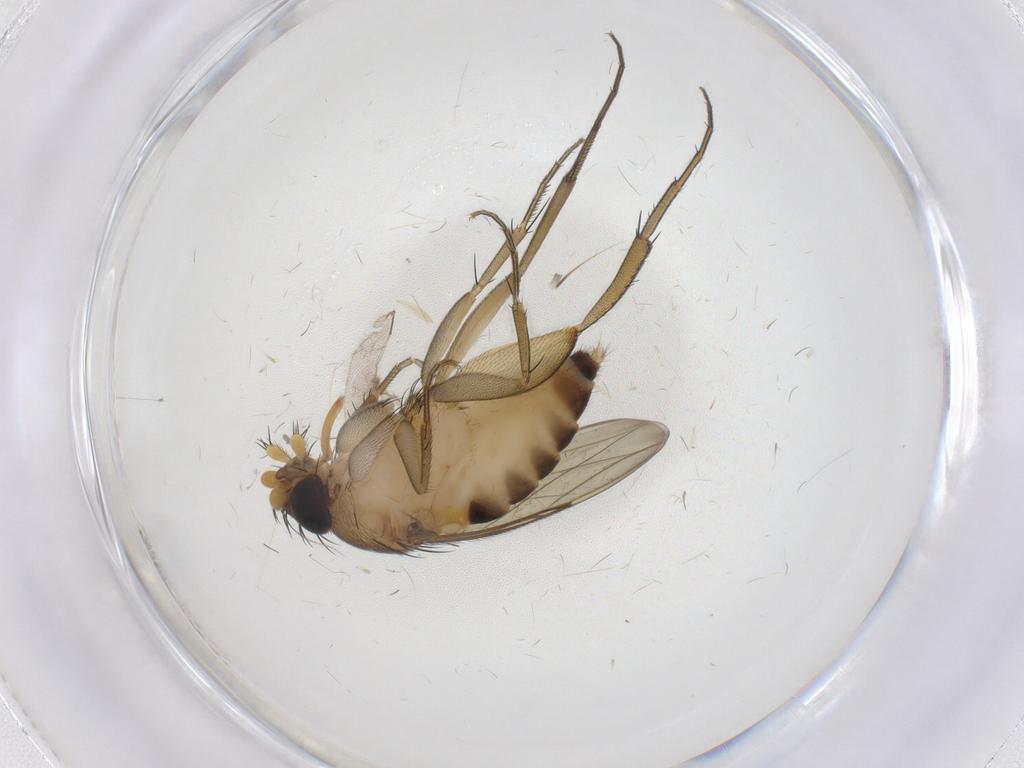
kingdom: Animalia
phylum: Arthropoda
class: Insecta
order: Diptera
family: Phoridae
